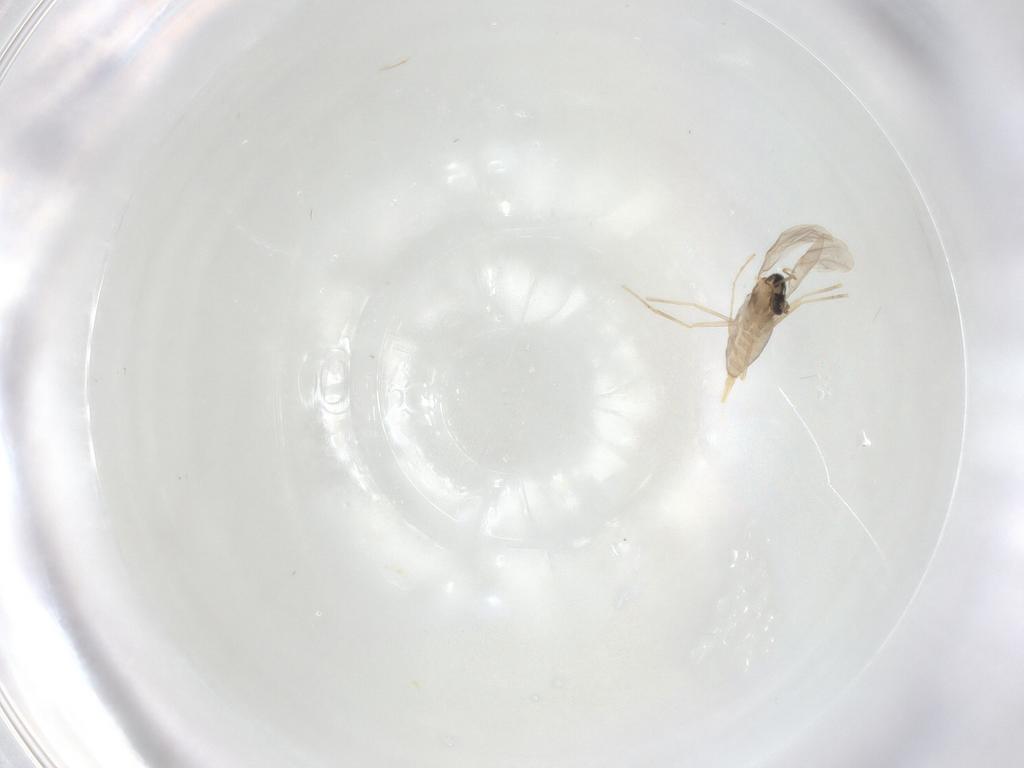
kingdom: Animalia
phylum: Arthropoda
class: Insecta
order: Diptera
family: Cecidomyiidae
